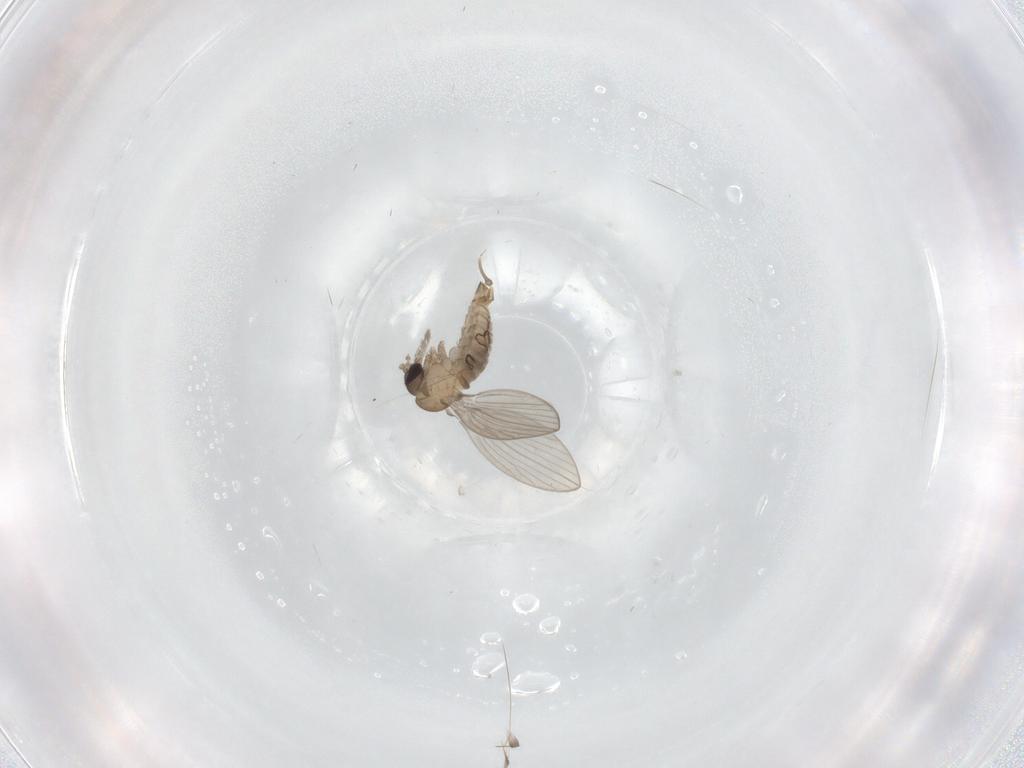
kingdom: Animalia
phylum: Arthropoda
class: Insecta
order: Diptera
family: Psychodidae
